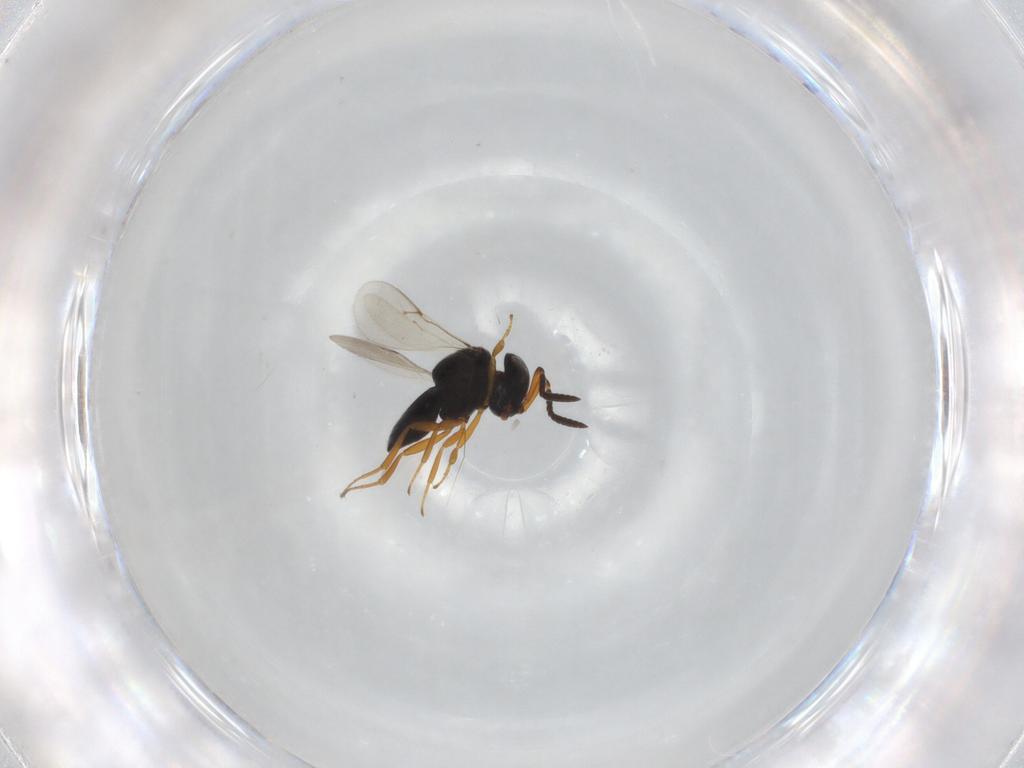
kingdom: Animalia
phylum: Arthropoda
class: Insecta
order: Hymenoptera
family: Scelionidae
